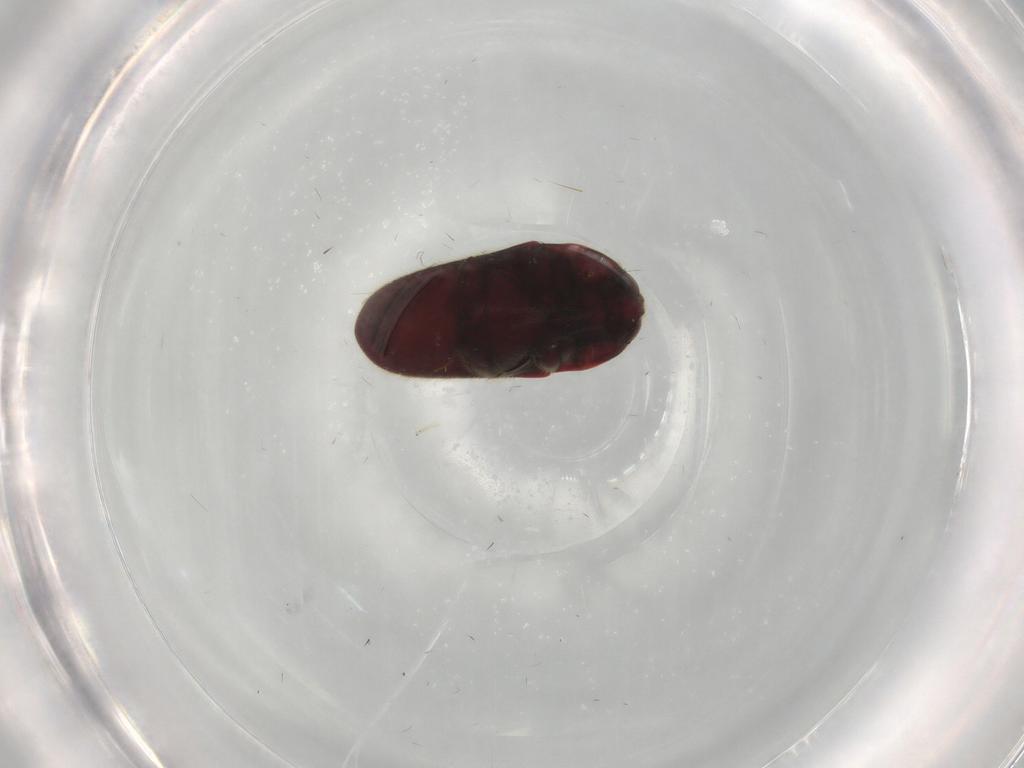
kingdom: Animalia
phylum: Arthropoda
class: Insecta
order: Coleoptera
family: Throscidae
